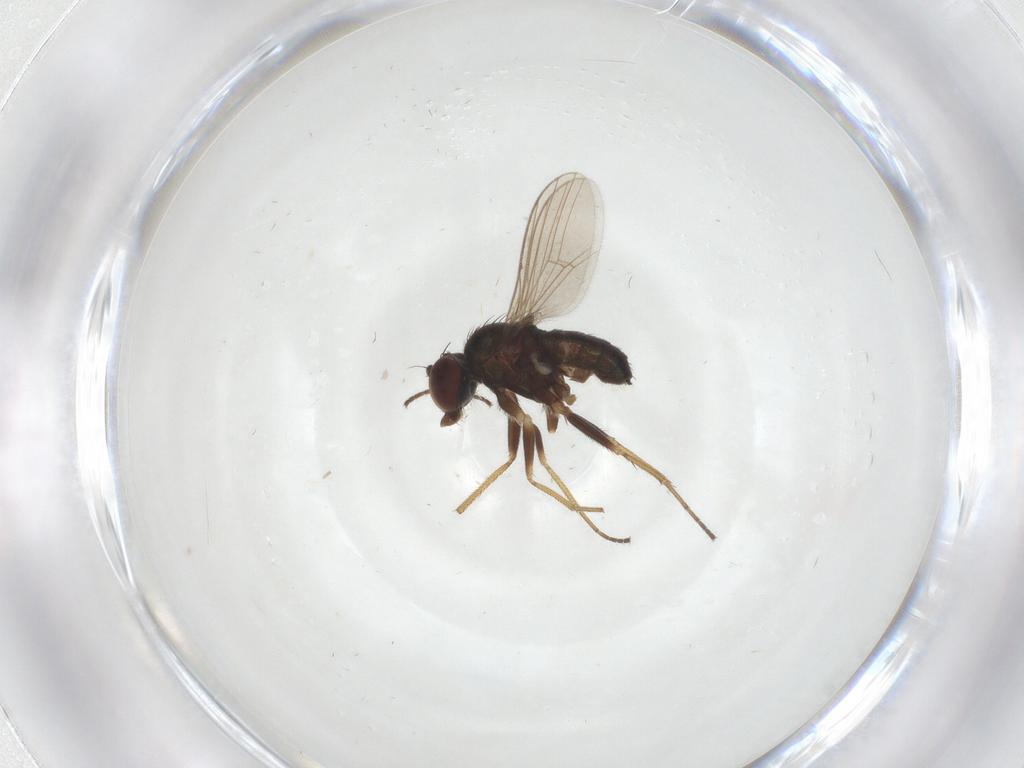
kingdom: Animalia
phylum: Arthropoda
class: Insecta
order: Diptera
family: Dolichopodidae
